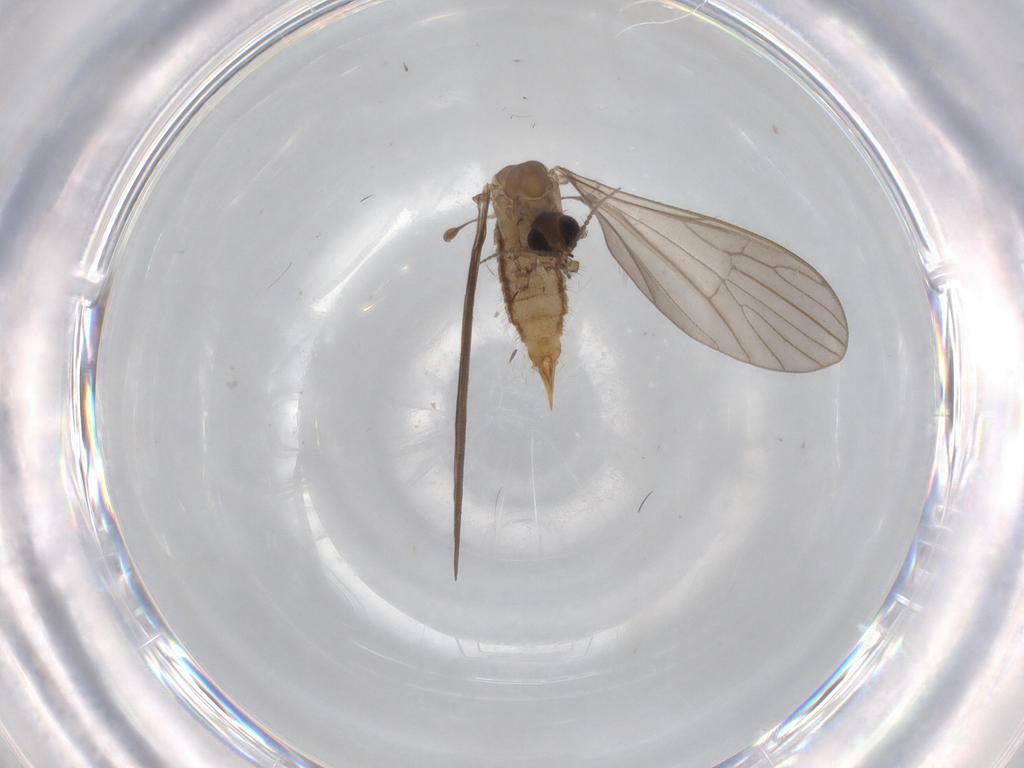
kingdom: Animalia
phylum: Arthropoda
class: Insecta
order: Diptera
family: Limoniidae
